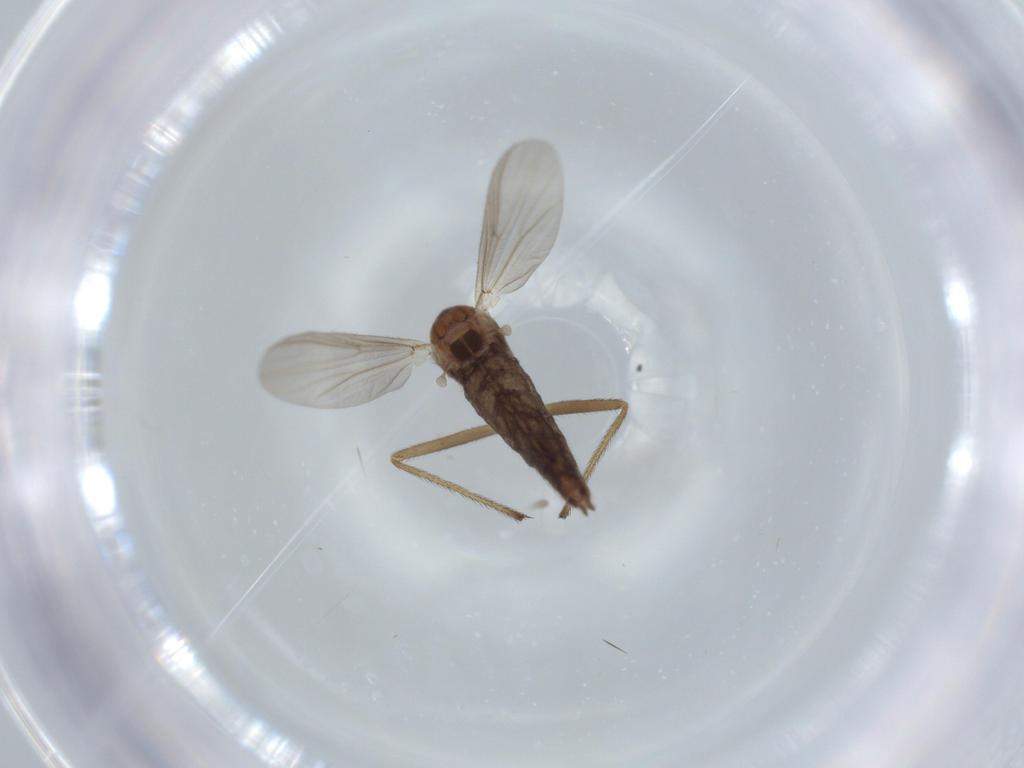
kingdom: Animalia
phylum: Arthropoda
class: Insecta
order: Diptera
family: Chironomidae
